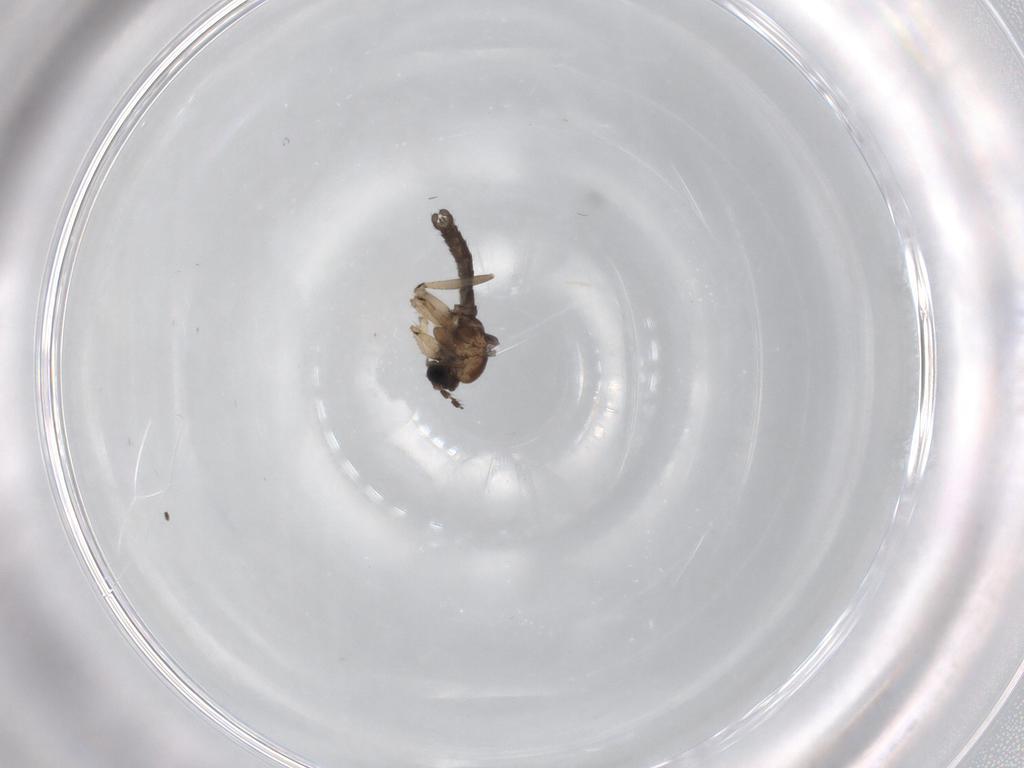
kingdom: Animalia
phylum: Arthropoda
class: Insecta
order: Diptera
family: Sciaridae
